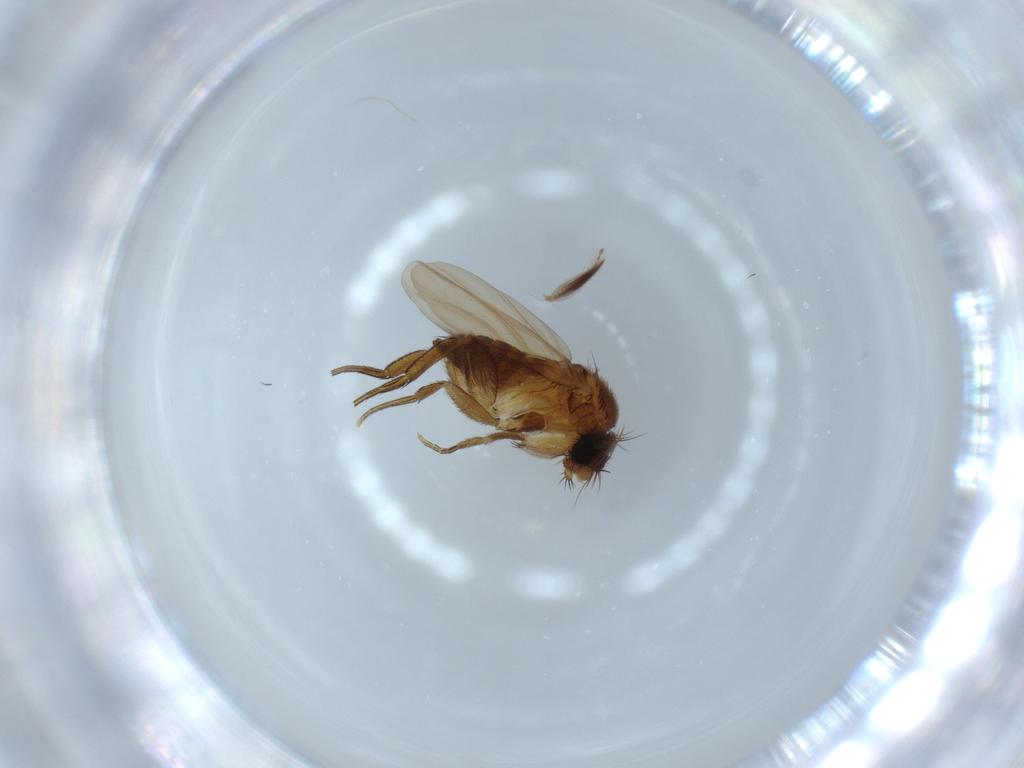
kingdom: Animalia
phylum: Arthropoda
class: Insecta
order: Diptera
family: Phoridae
